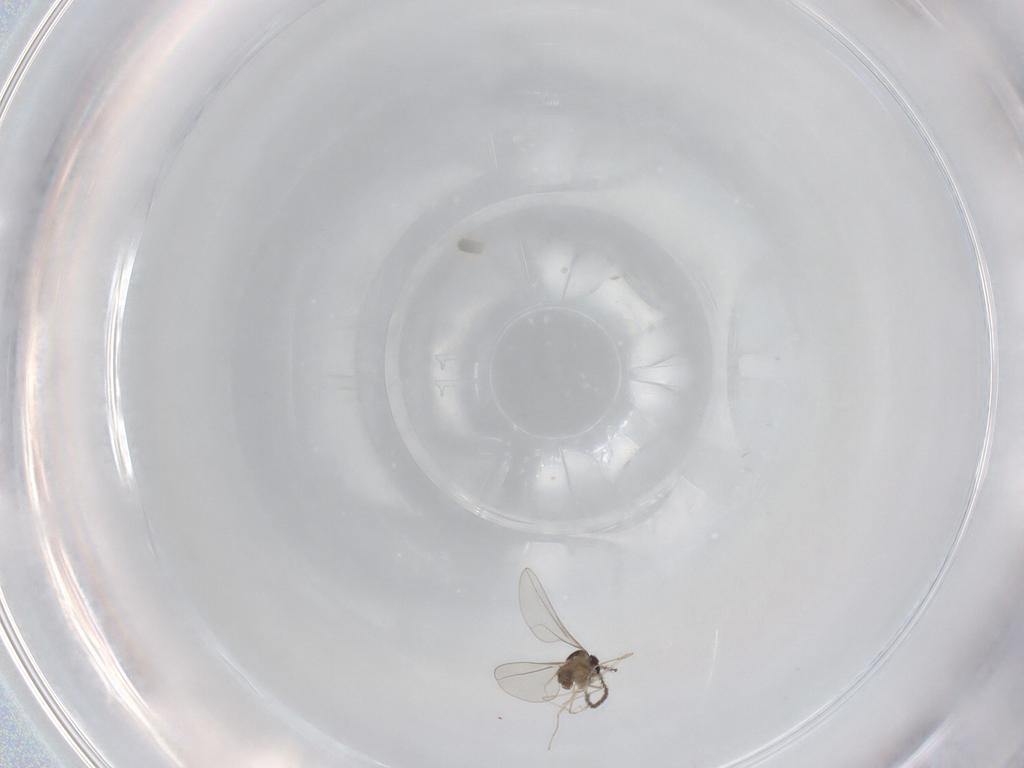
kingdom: Animalia
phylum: Arthropoda
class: Insecta
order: Diptera
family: Cecidomyiidae
